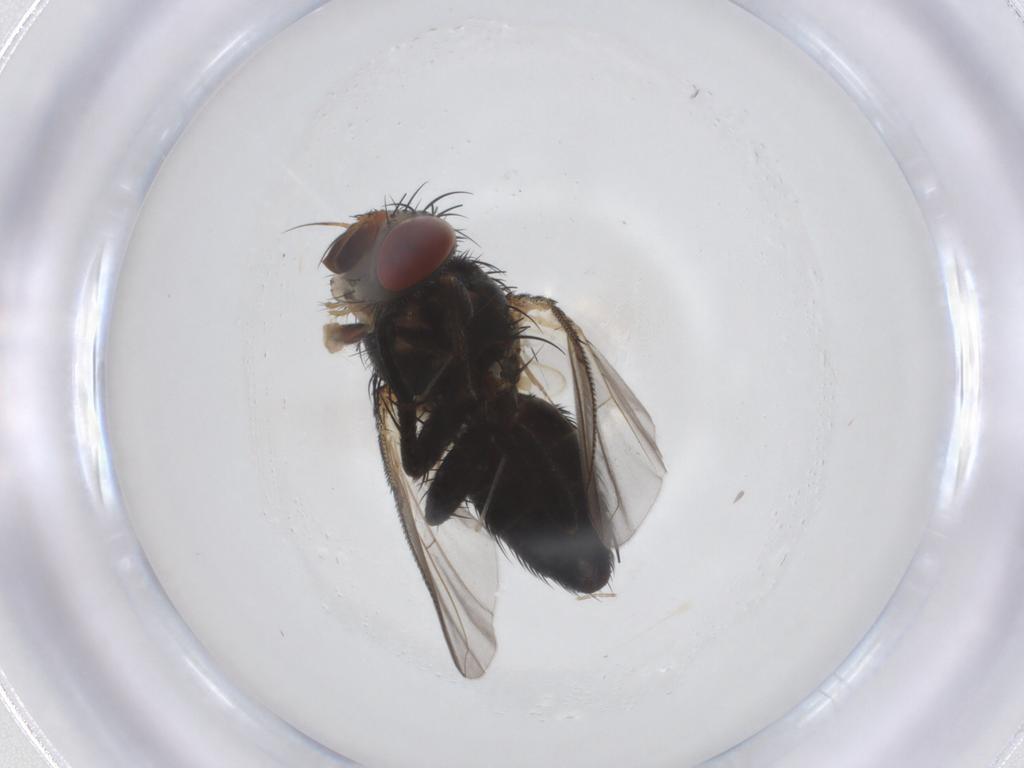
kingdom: Animalia
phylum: Arthropoda
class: Insecta
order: Diptera
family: Tachinidae
